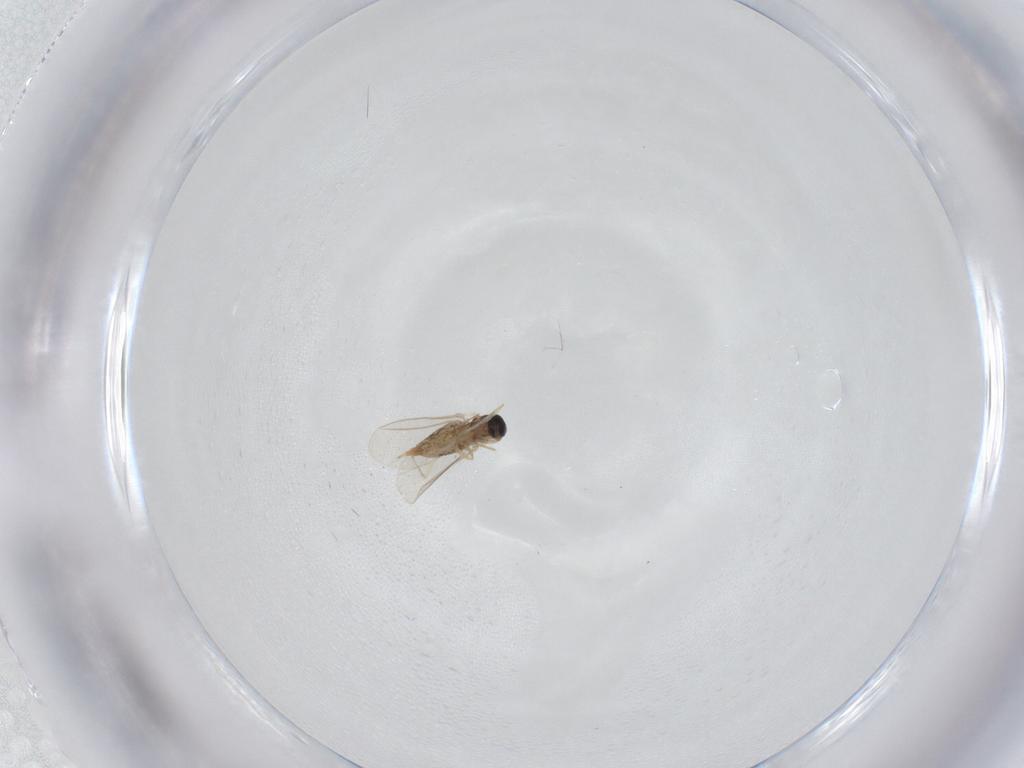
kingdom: Animalia
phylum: Arthropoda
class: Insecta
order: Diptera
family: Cecidomyiidae
